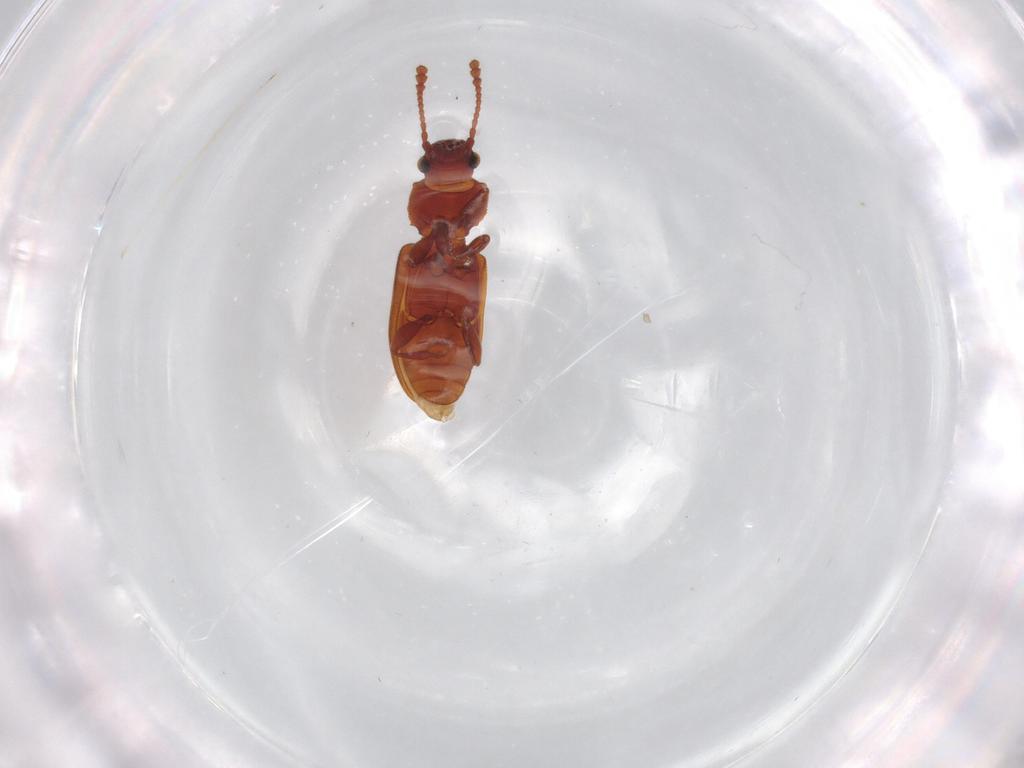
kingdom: Animalia
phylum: Arthropoda
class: Insecta
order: Coleoptera
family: Silvanidae
